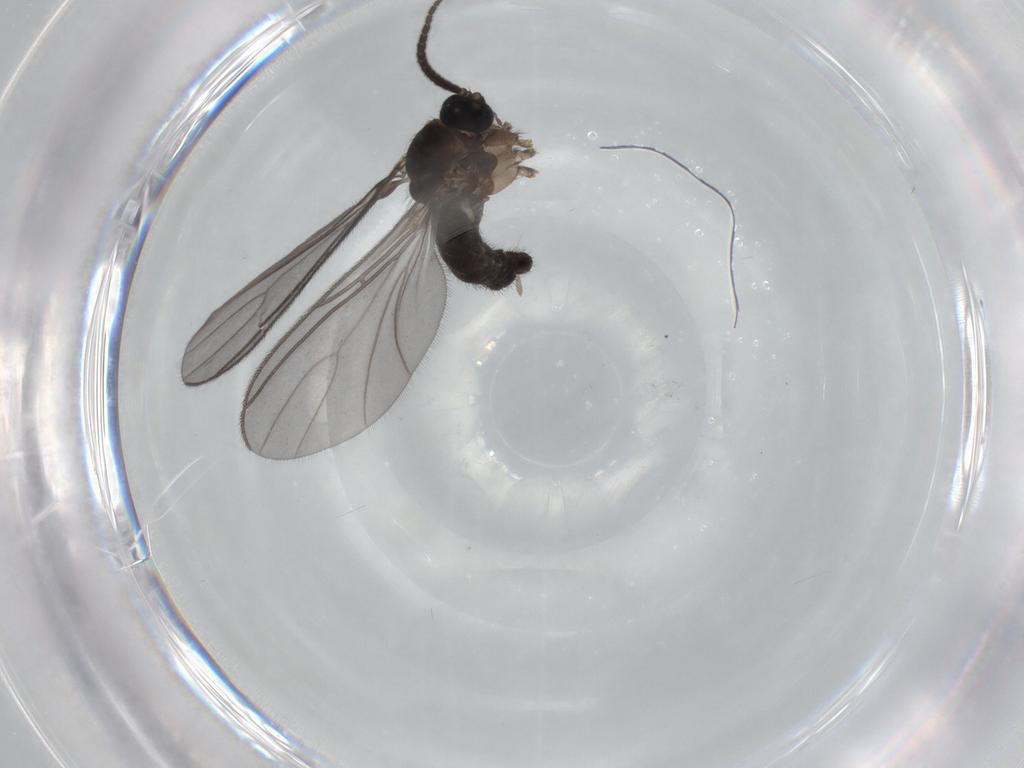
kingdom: Animalia
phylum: Arthropoda
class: Insecta
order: Diptera
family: Sciaridae
